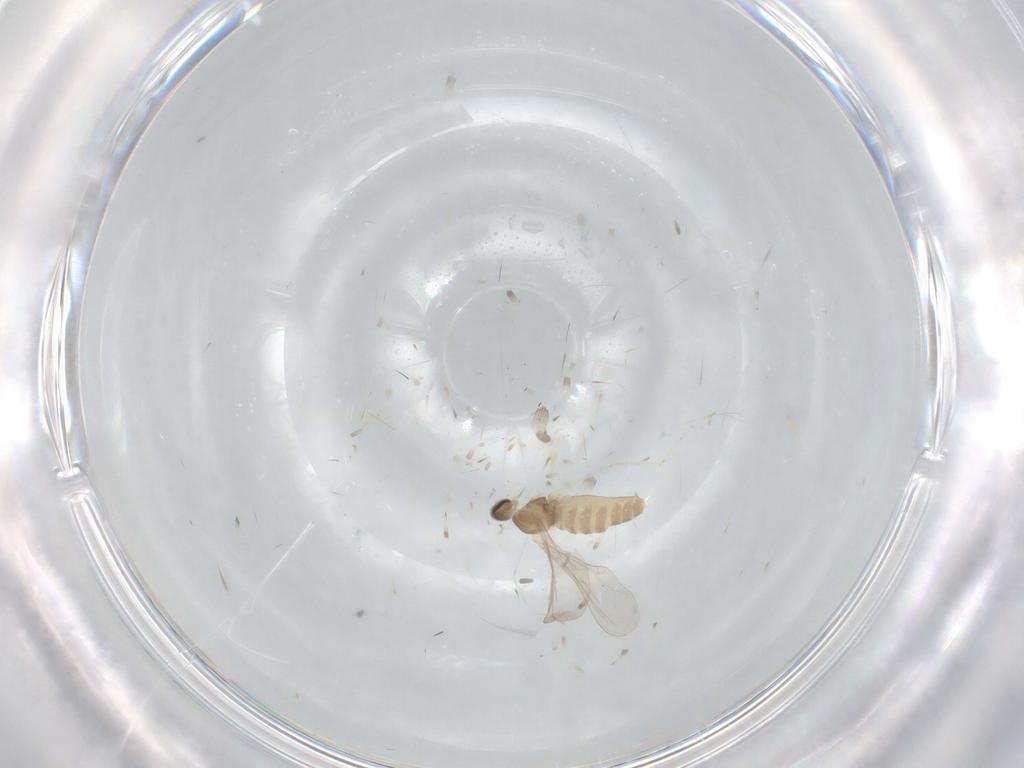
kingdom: Animalia
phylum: Arthropoda
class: Insecta
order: Diptera
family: Cecidomyiidae
